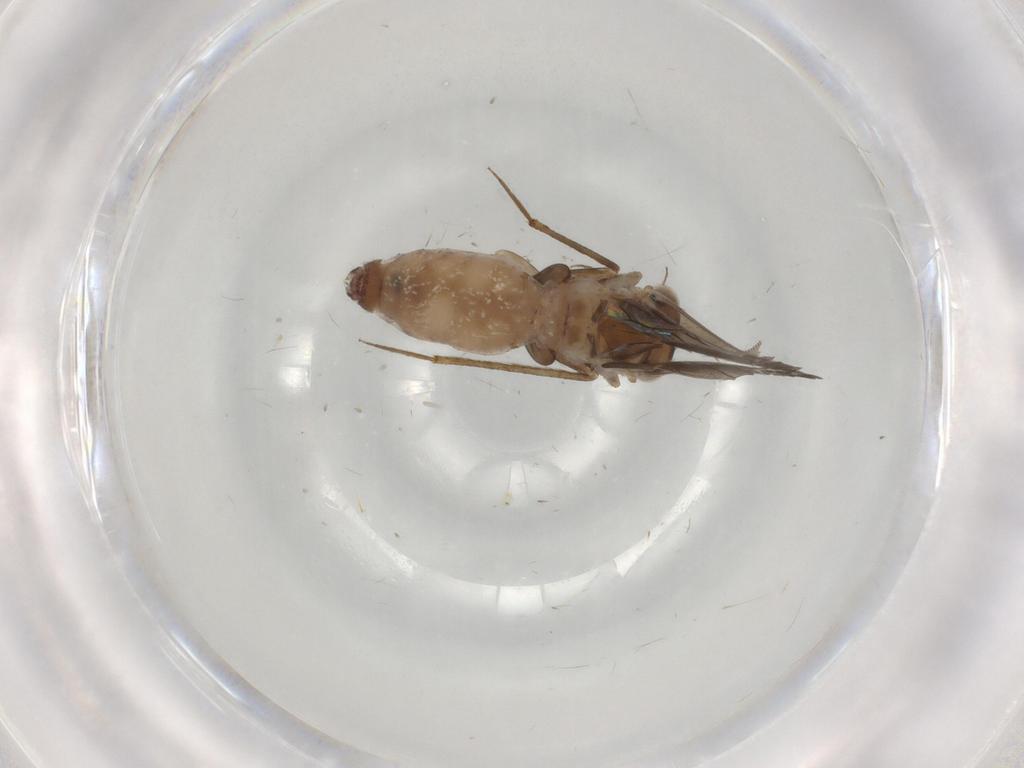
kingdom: Animalia
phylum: Arthropoda
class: Insecta
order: Psocodea
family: Lepidopsocidae
